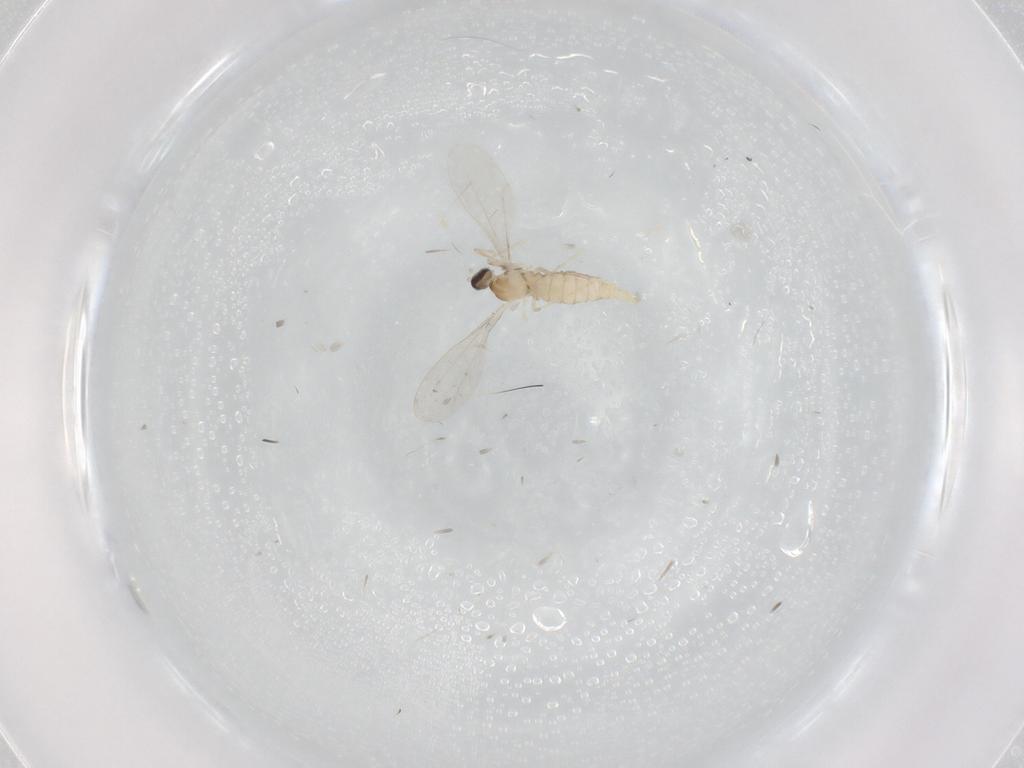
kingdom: Animalia
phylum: Arthropoda
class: Insecta
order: Diptera
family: Cecidomyiidae
